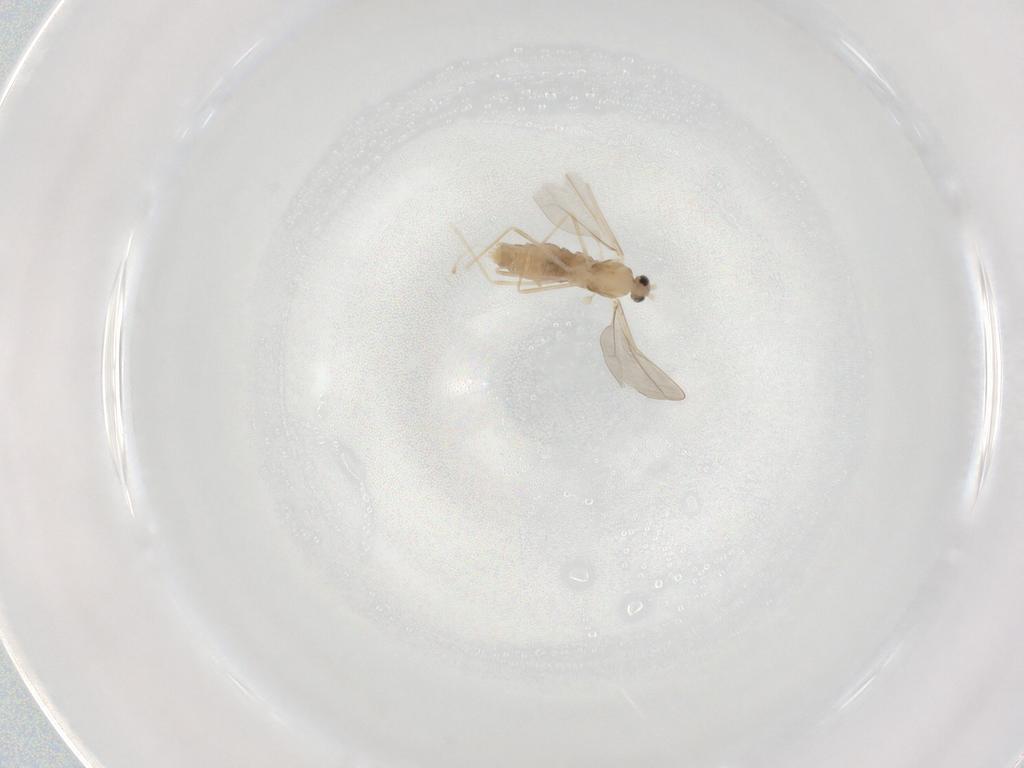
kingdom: Animalia
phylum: Arthropoda
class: Insecta
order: Diptera
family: Cecidomyiidae
